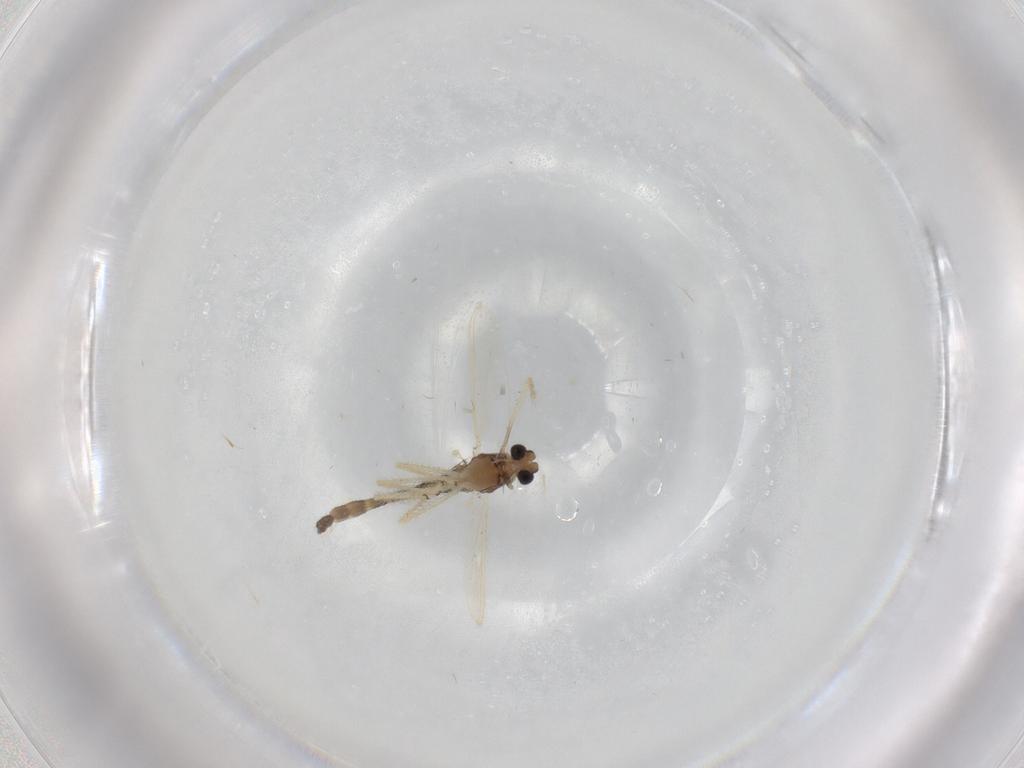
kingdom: Animalia
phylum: Arthropoda
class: Insecta
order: Diptera
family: Chironomidae
